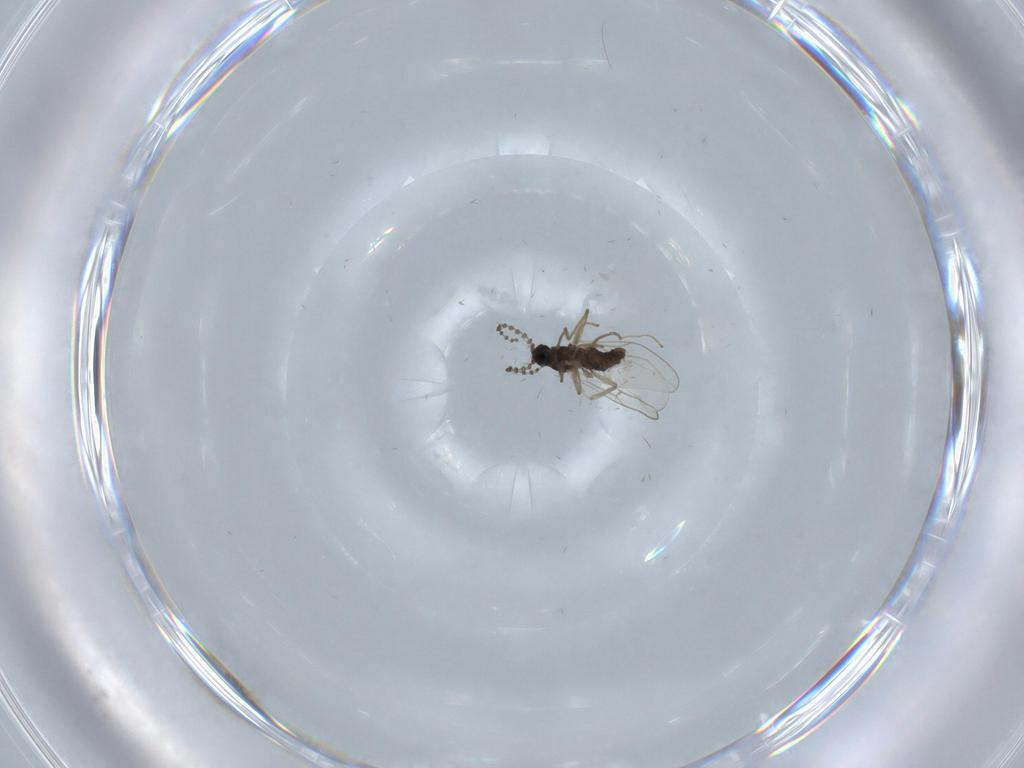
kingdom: Animalia
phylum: Arthropoda
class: Insecta
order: Diptera
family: Cecidomyiidae
